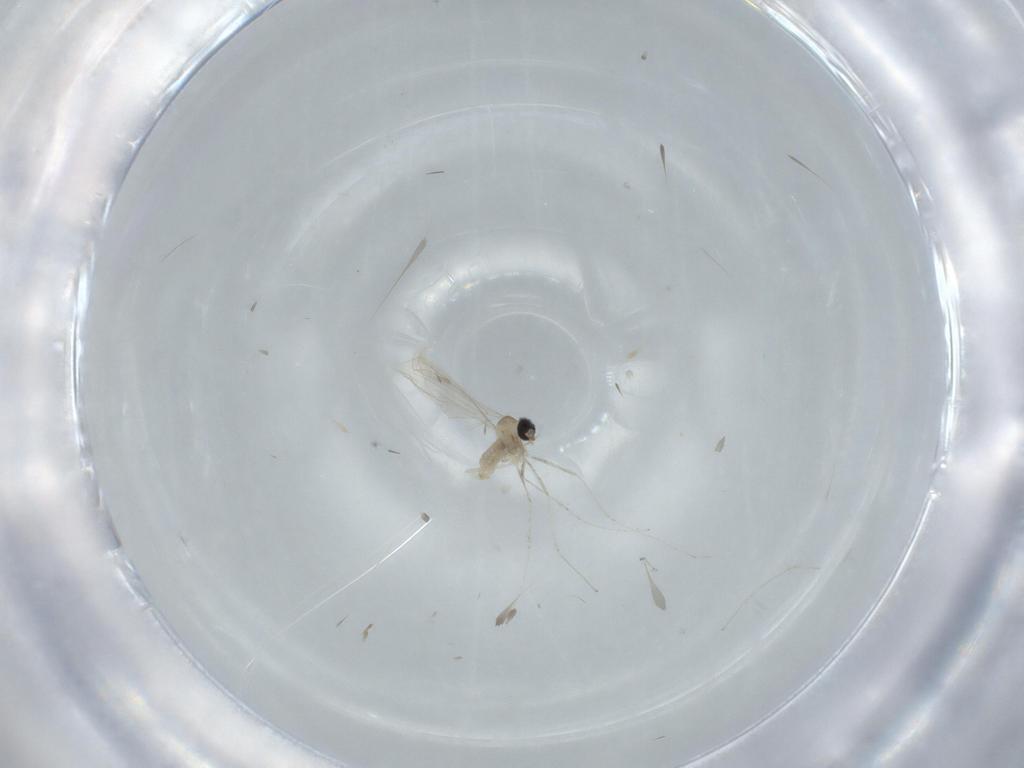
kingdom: Animalia
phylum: Arthropoda
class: Insecta
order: Diptera
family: Cecidomyiidae
